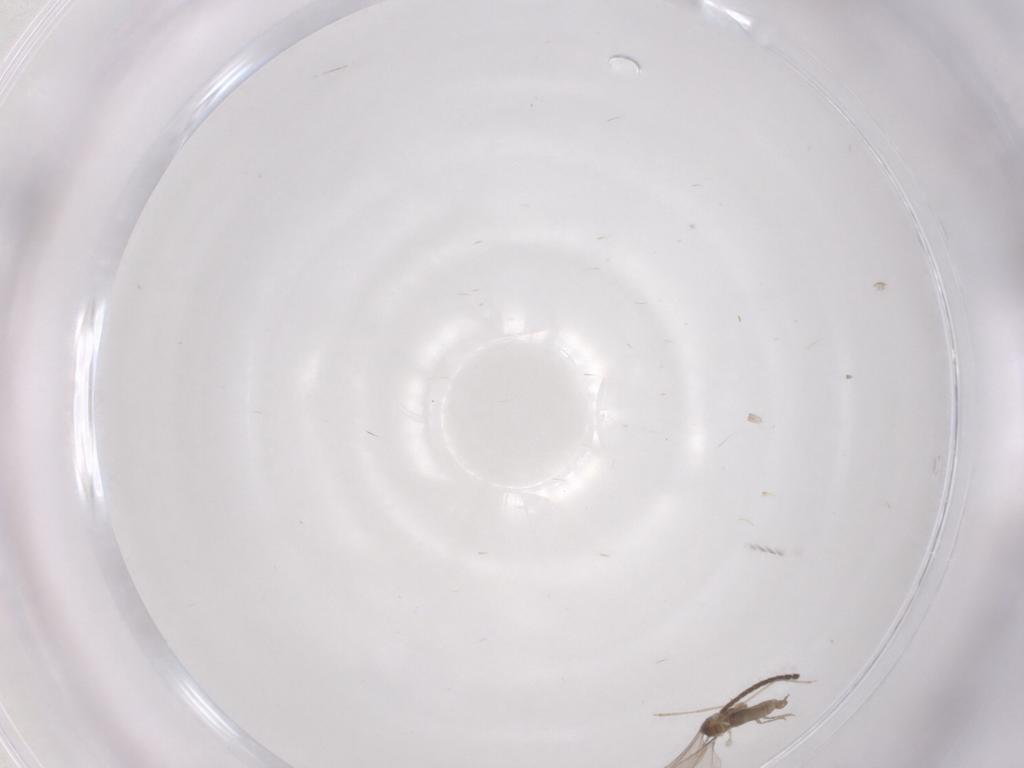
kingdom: Animalia
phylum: Arthropoda
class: Insecta
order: Diptera
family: Cecidomyiidae
